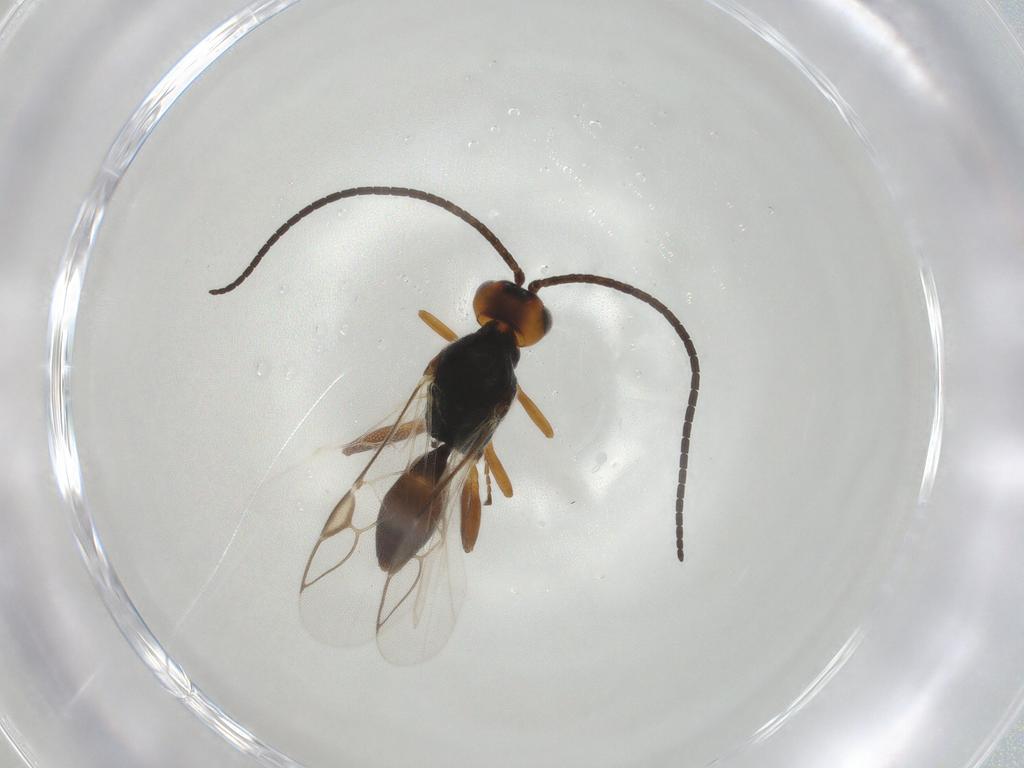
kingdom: Animalia
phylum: Arthropoda
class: Insecta
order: Hymenoptera
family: Braconidae
